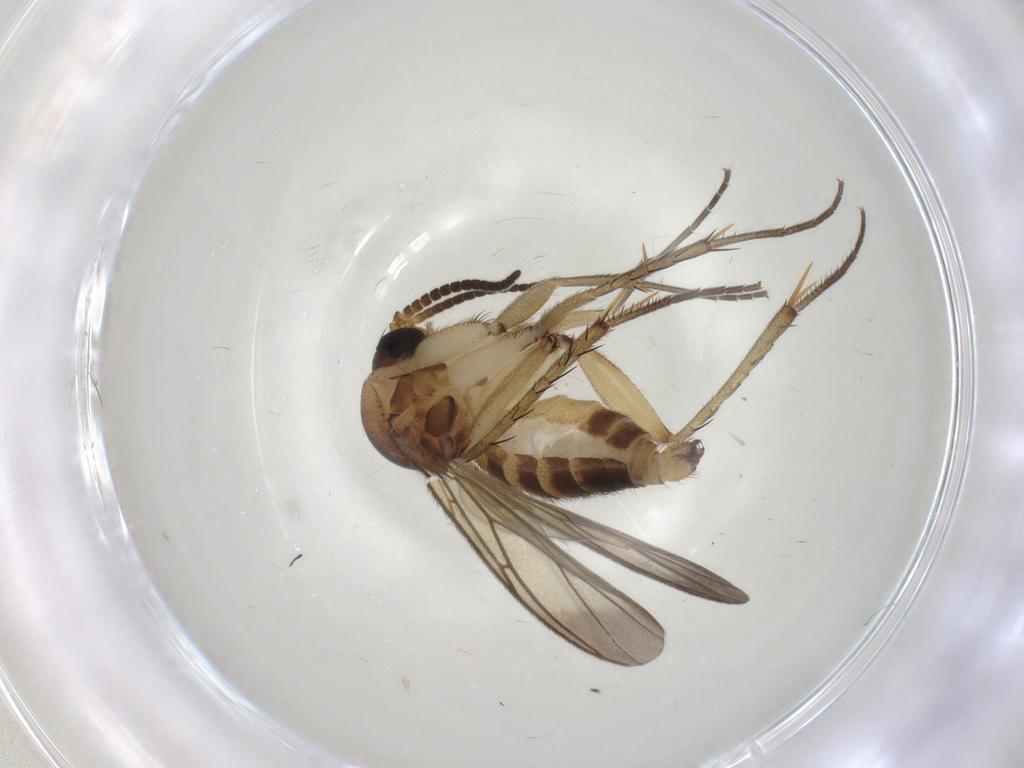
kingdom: Animalia
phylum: Arthropoda
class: Insecta
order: Diptera
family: Mycetophilidae
